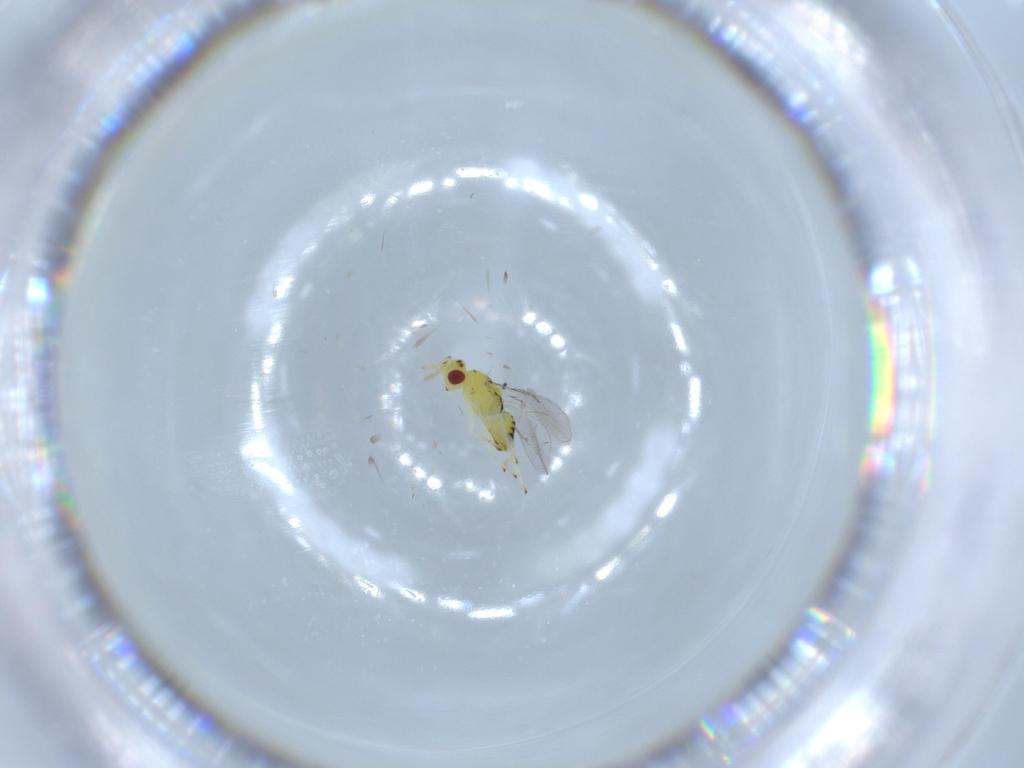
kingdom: Animalia
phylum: Arthropoda
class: Insecta
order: Hymenoptera
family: Eulophidae
